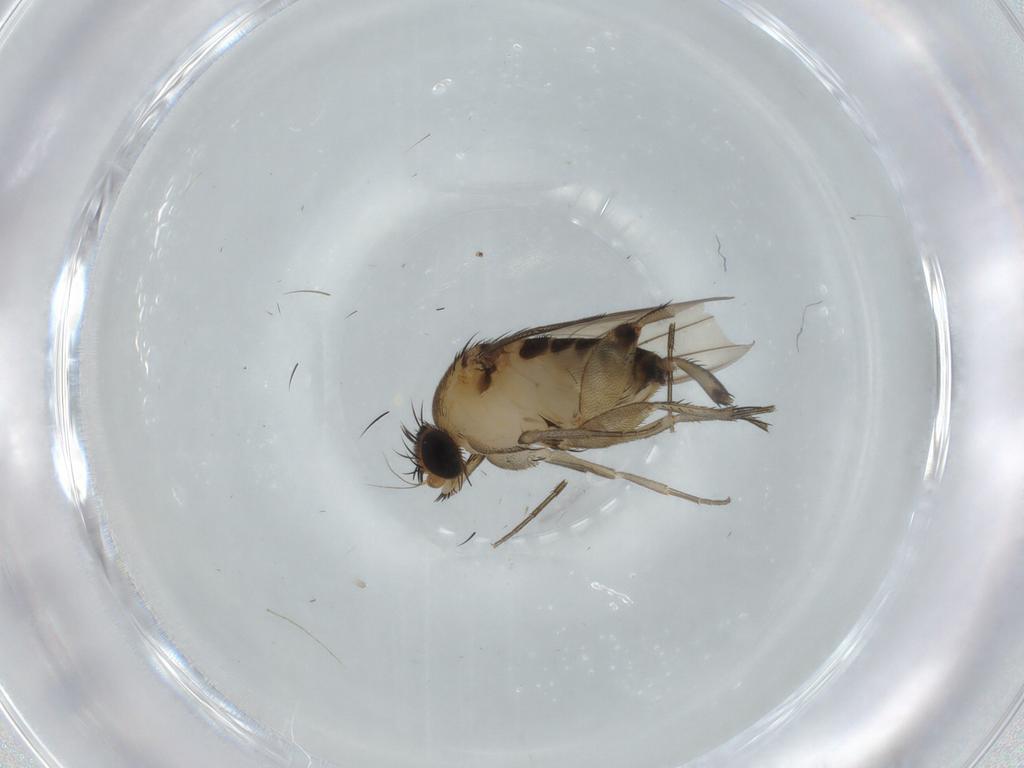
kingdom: Animalia
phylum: Arthropoda
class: Insecta
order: Diptera
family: Phoridae
